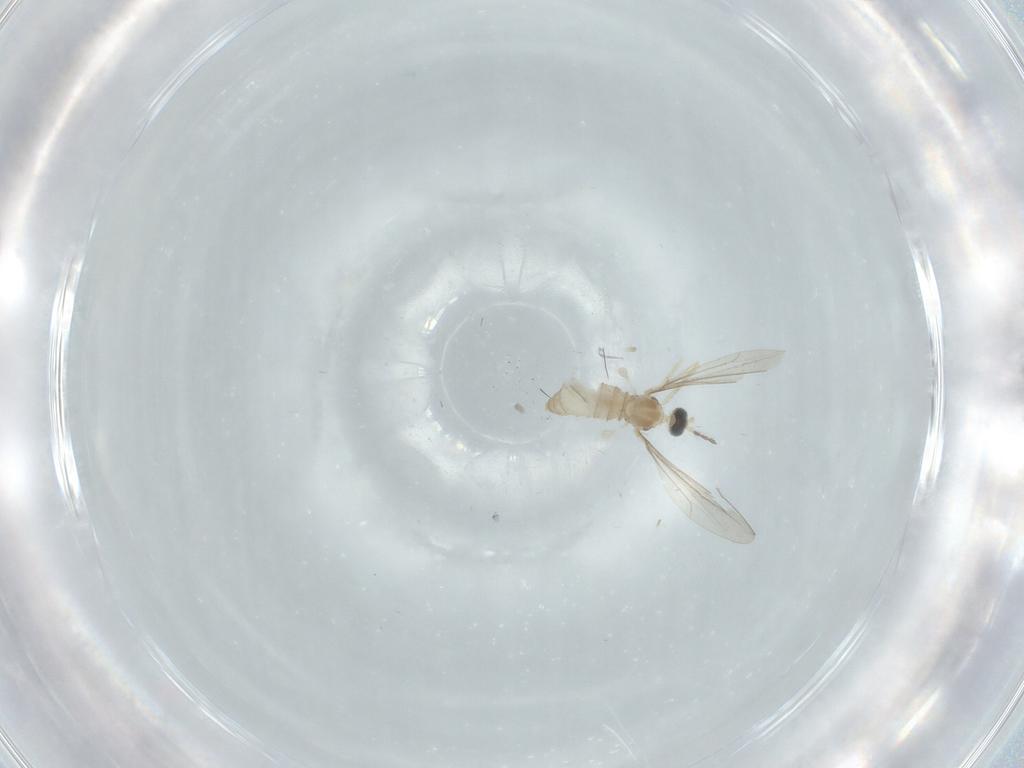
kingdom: Animalia
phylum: Arthropoda
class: Insecta
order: Diptera
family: Cecidomyiidae
